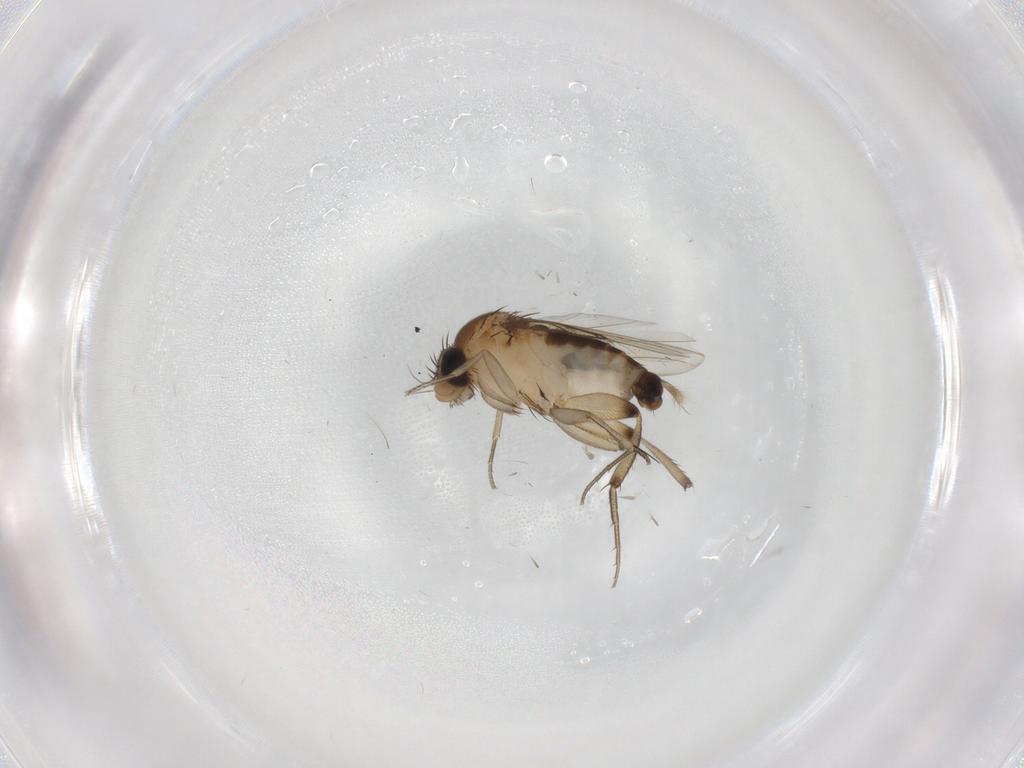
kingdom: Animalia
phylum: Arthropoda
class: Insecta
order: Diptera
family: Phoridae
